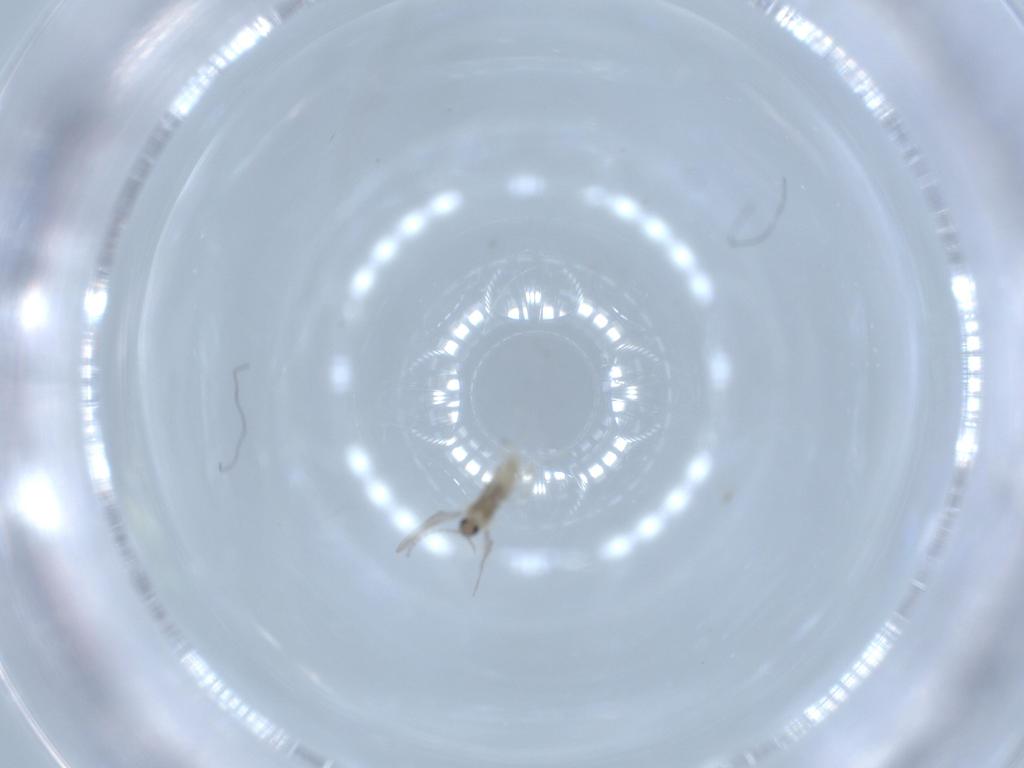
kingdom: Animalia
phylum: Arthropoda
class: Insecta
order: Diptera
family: Cecidomyiidae
